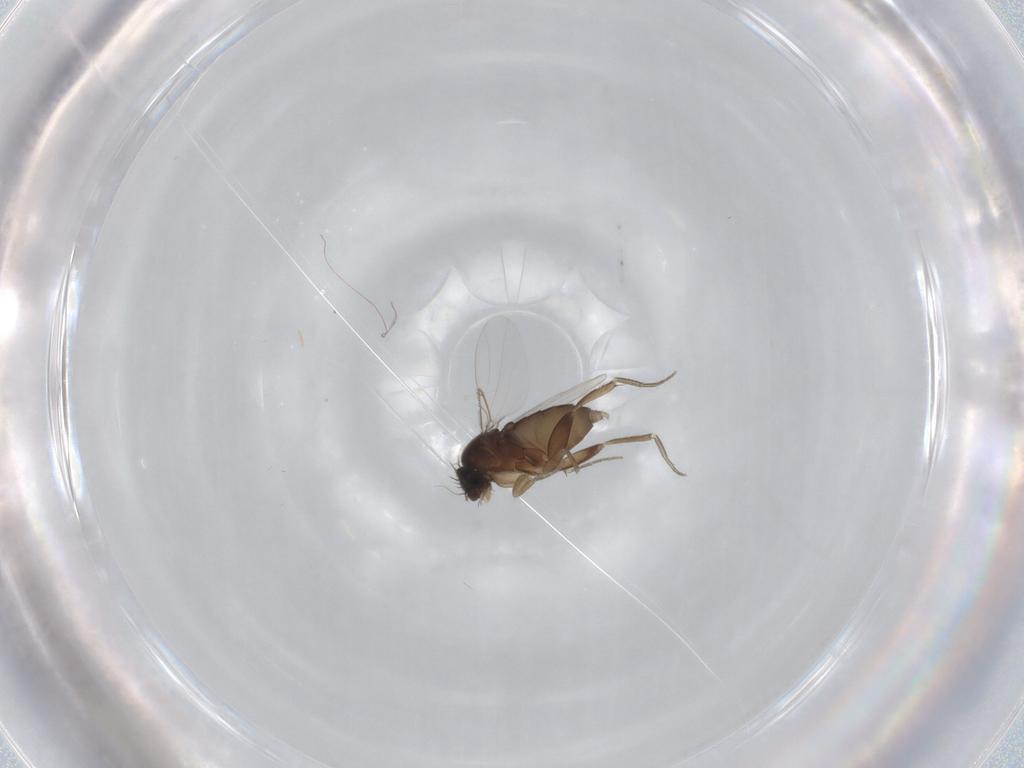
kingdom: Animalia
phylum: Arthropoda
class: Insecta
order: Diptera
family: Phoridae
